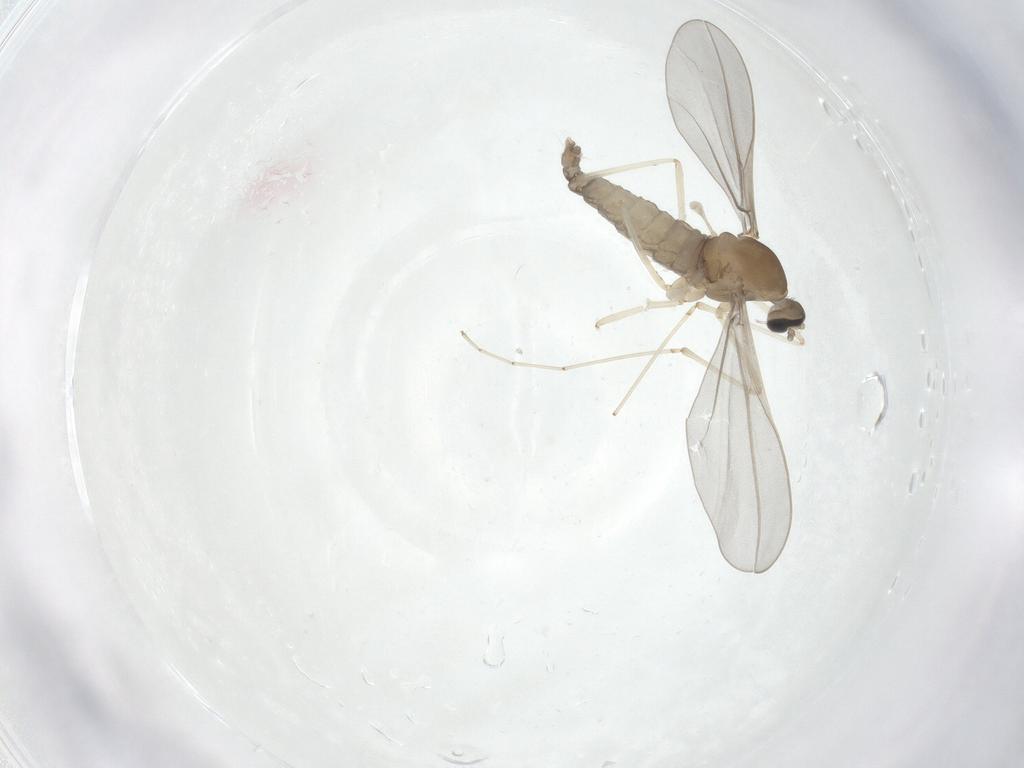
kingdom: Animalia
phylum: Arthropoda
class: Insecta
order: Diptera
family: Cecidomyiidae
